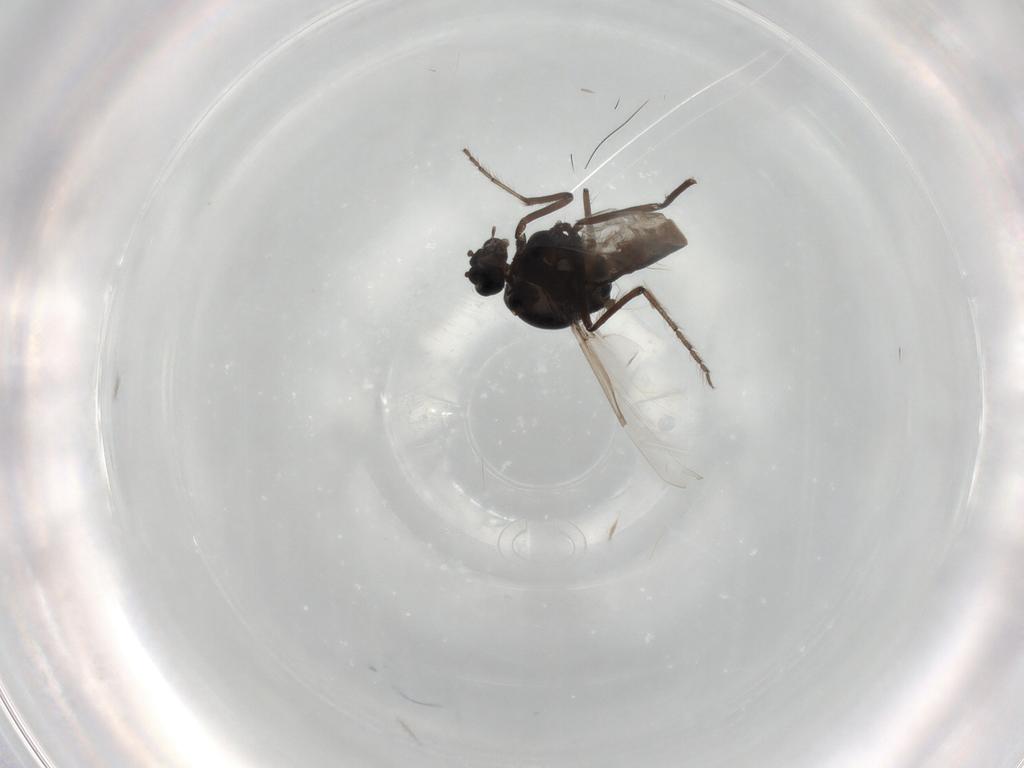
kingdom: Animalia
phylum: Arthropoda
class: Insecta
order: Diptera
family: Ceratopogonidae
